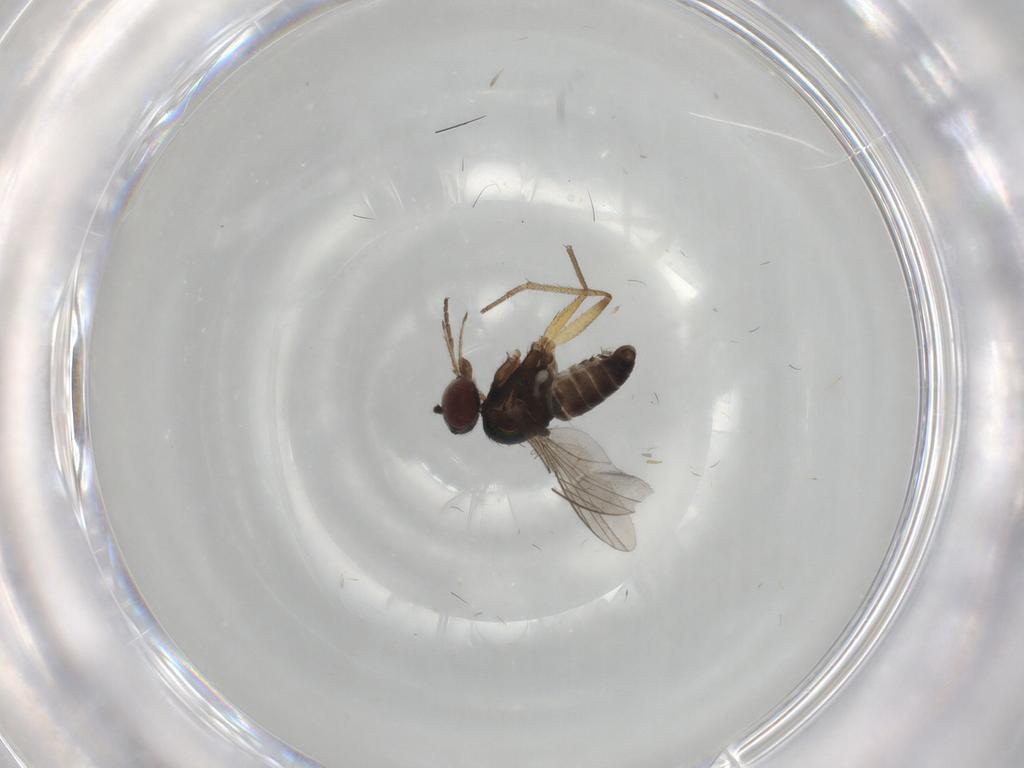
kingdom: Animalia
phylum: Arthropoda
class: Insecta
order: Diptera
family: Dolichopodidae
